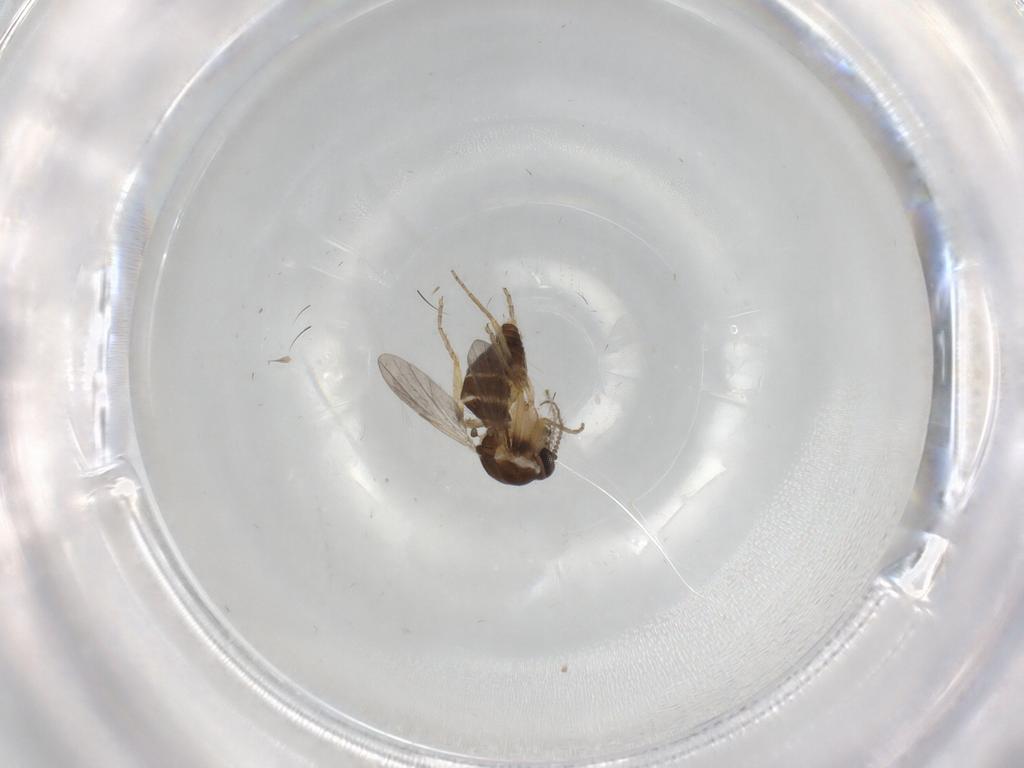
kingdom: Animalia
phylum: Arthropoda
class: Insecta
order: Diptera
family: Ceratopogonidae
